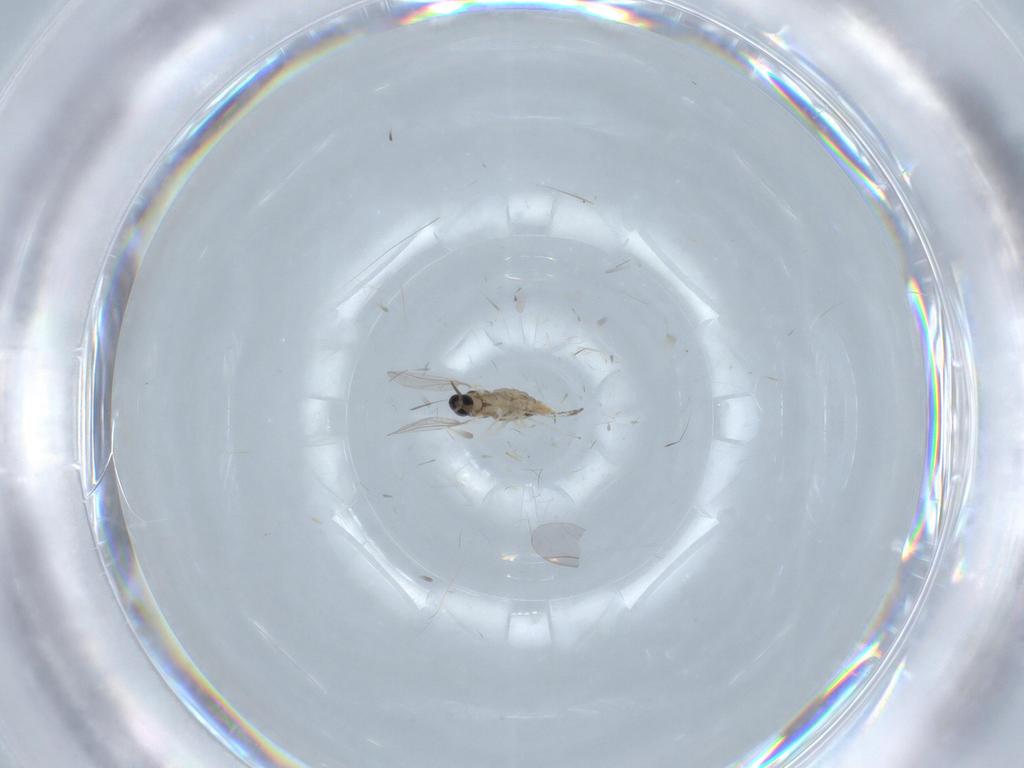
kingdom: Animalia
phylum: Arthropoda
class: Insecta
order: Diptera
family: Cecidomyiidae
